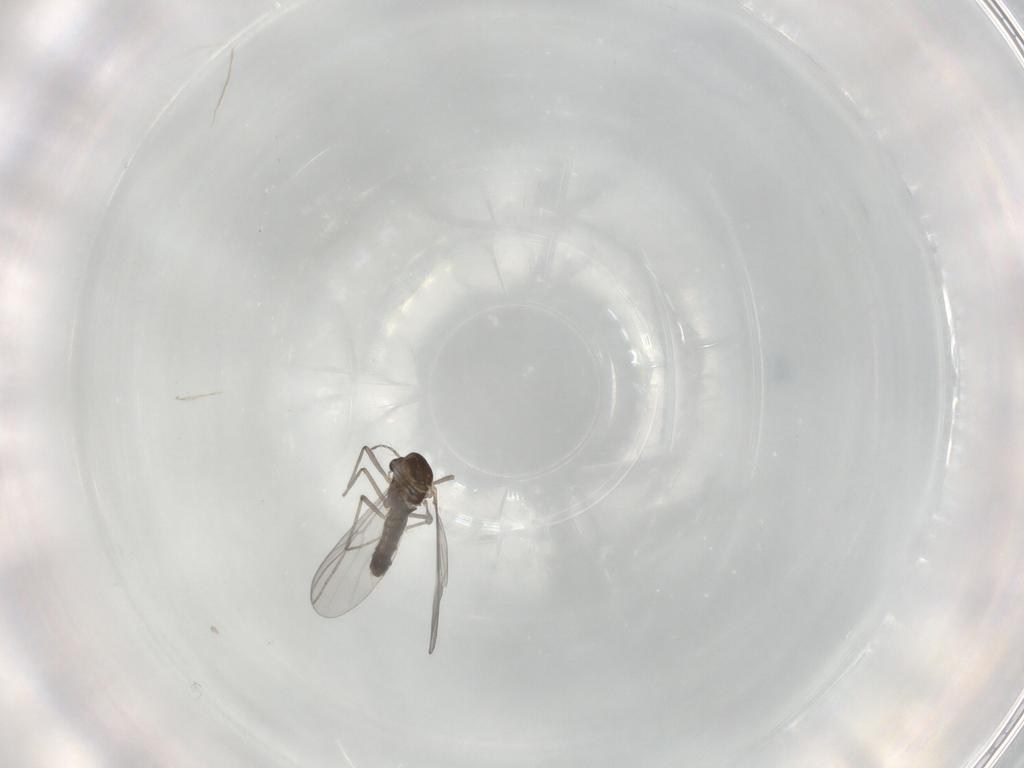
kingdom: Animalia
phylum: Arthropoda
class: Insecta
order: Diptera
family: Chironomidae
